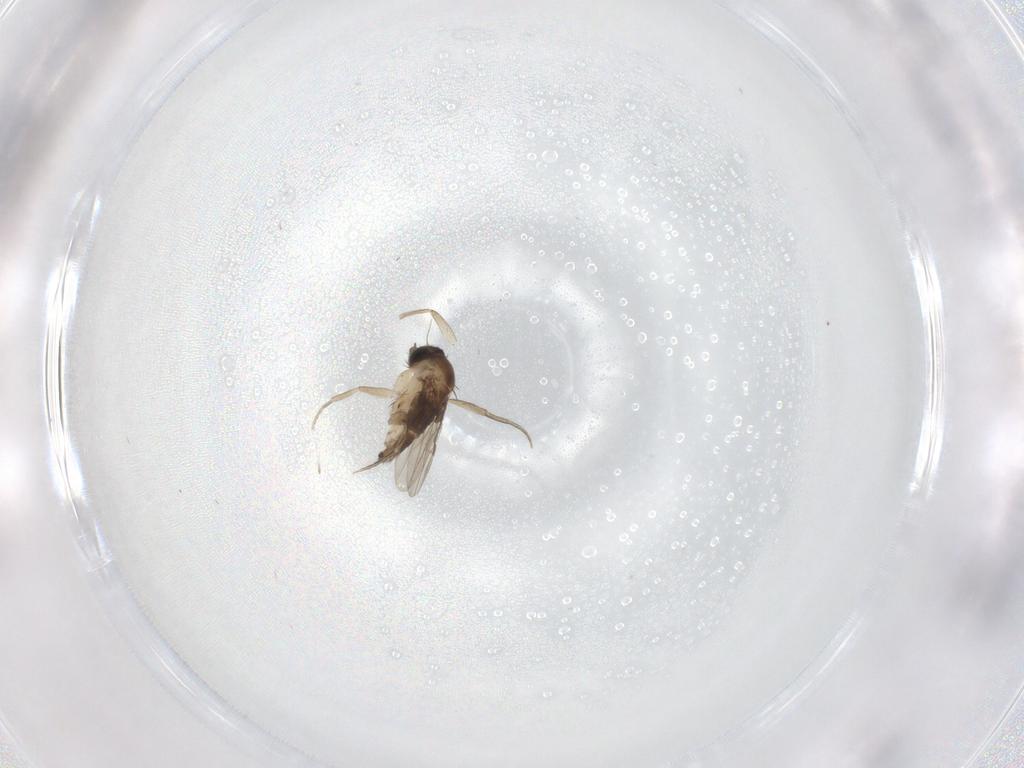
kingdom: Animalia
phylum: Arthropoda
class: Insecta
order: Diptera
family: Phoridae
